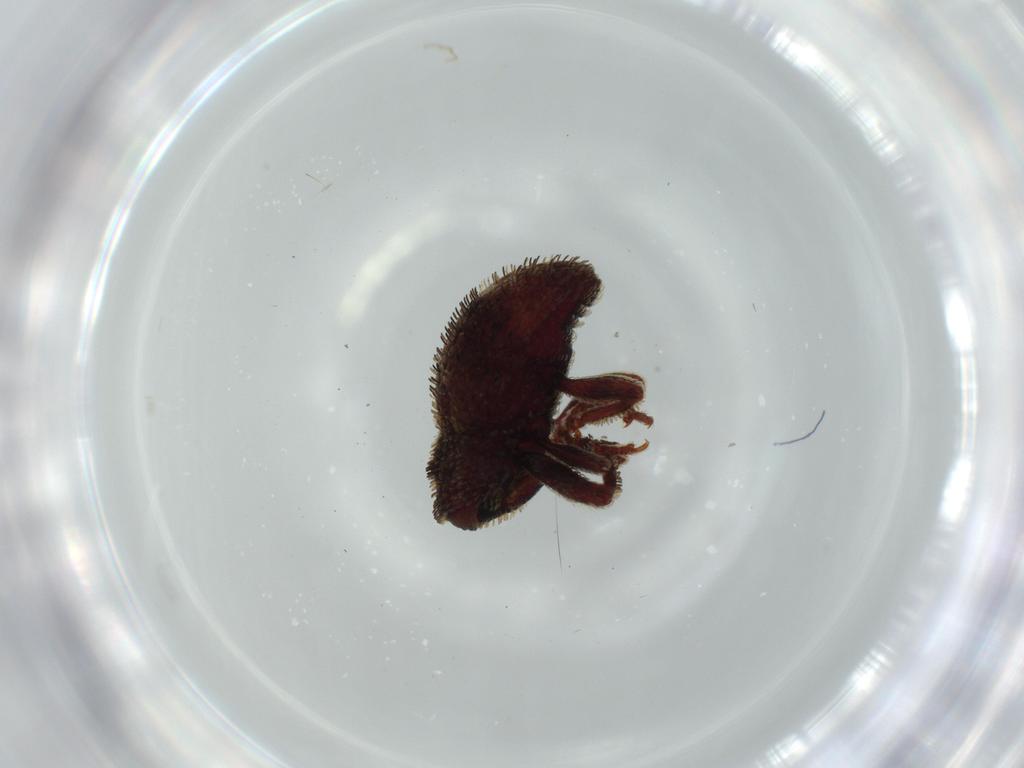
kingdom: Animalia
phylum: Arthropoda
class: Insecta
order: Coleoptera
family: Curculionidae
